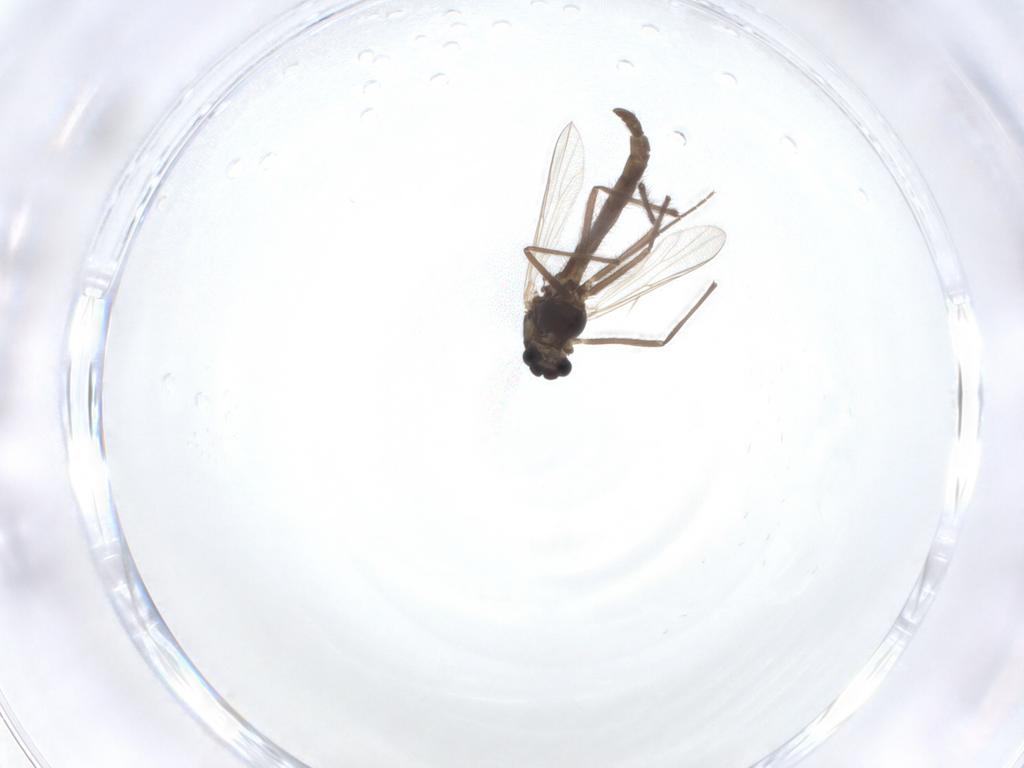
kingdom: Animalia
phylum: Arthropoda
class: Insecta
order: Diptera
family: Chironomidae
